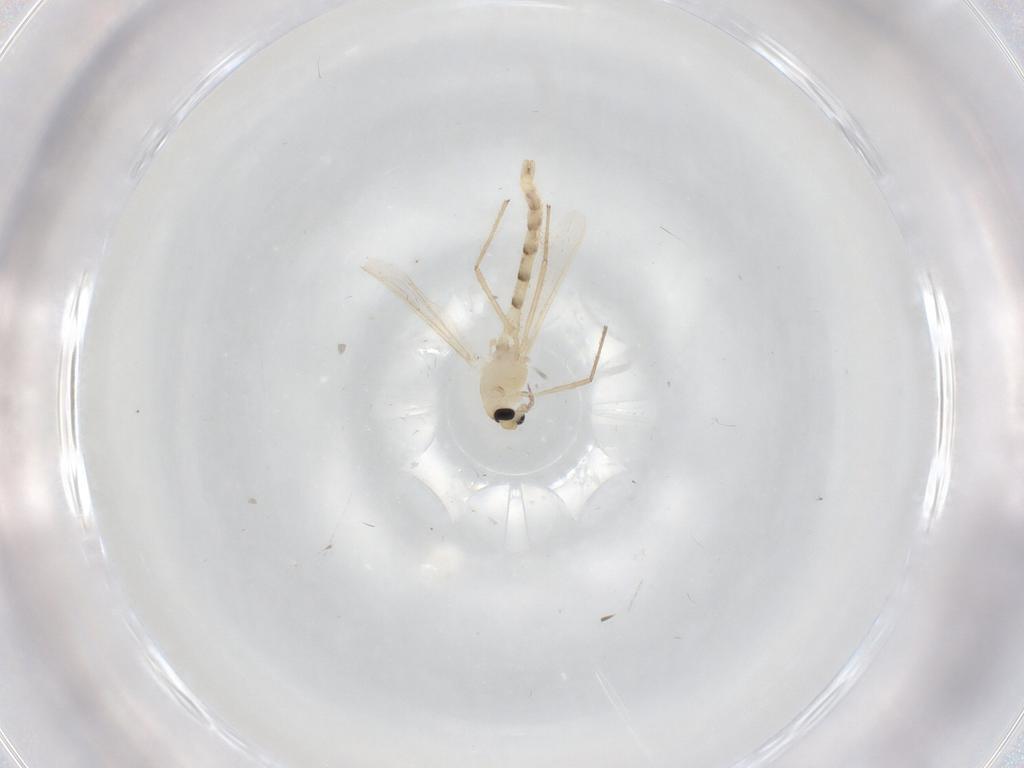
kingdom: Animalia
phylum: Arthropoda
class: Insecta
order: Diptera
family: Chironomidae
